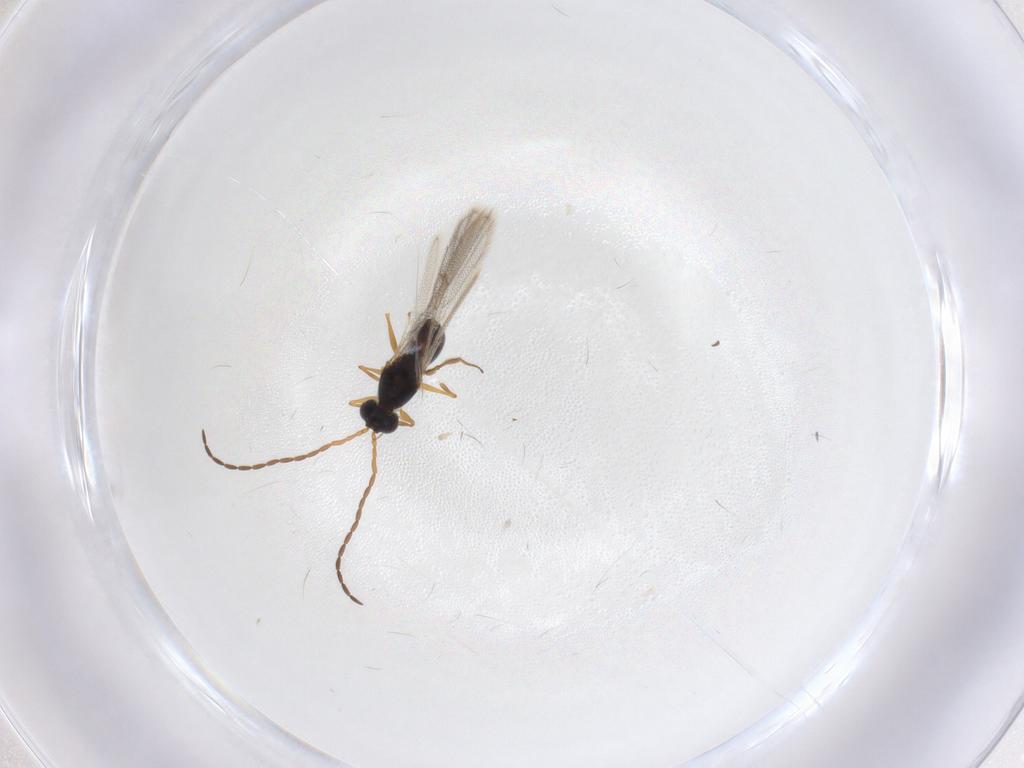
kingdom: Animalia
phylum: Arthropoda
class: Insecta
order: Hymenoptera
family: Figitidae
